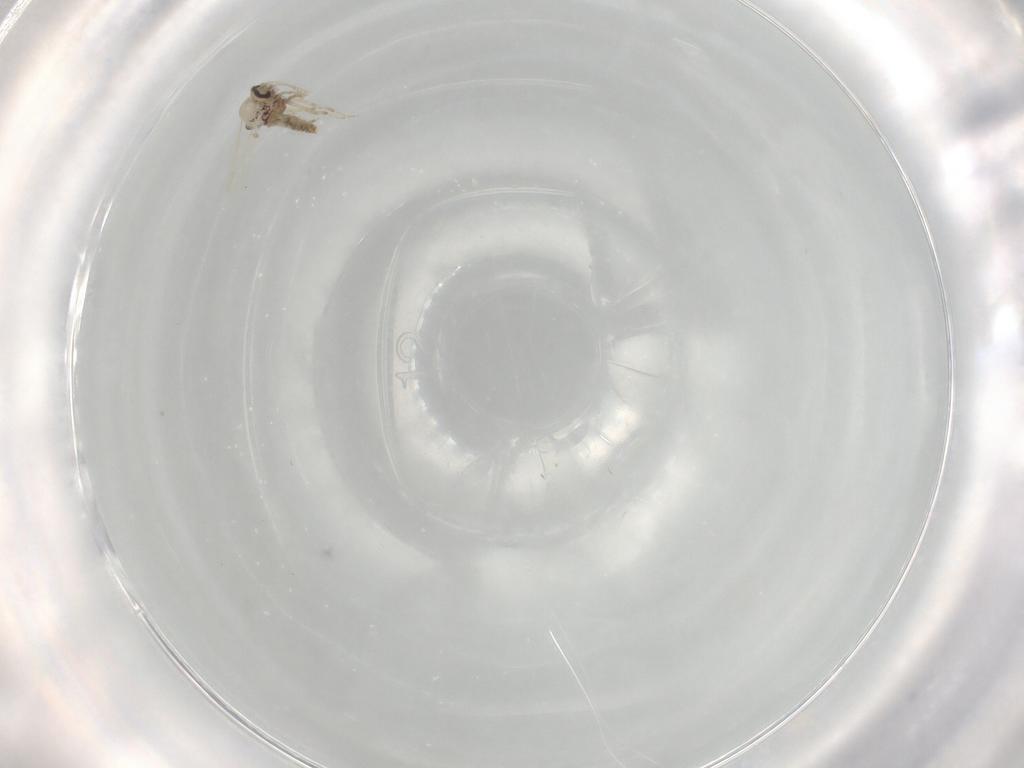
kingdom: Animalia
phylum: Arthropoda
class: Insecta
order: Diptera
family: Ceratopogonidae
